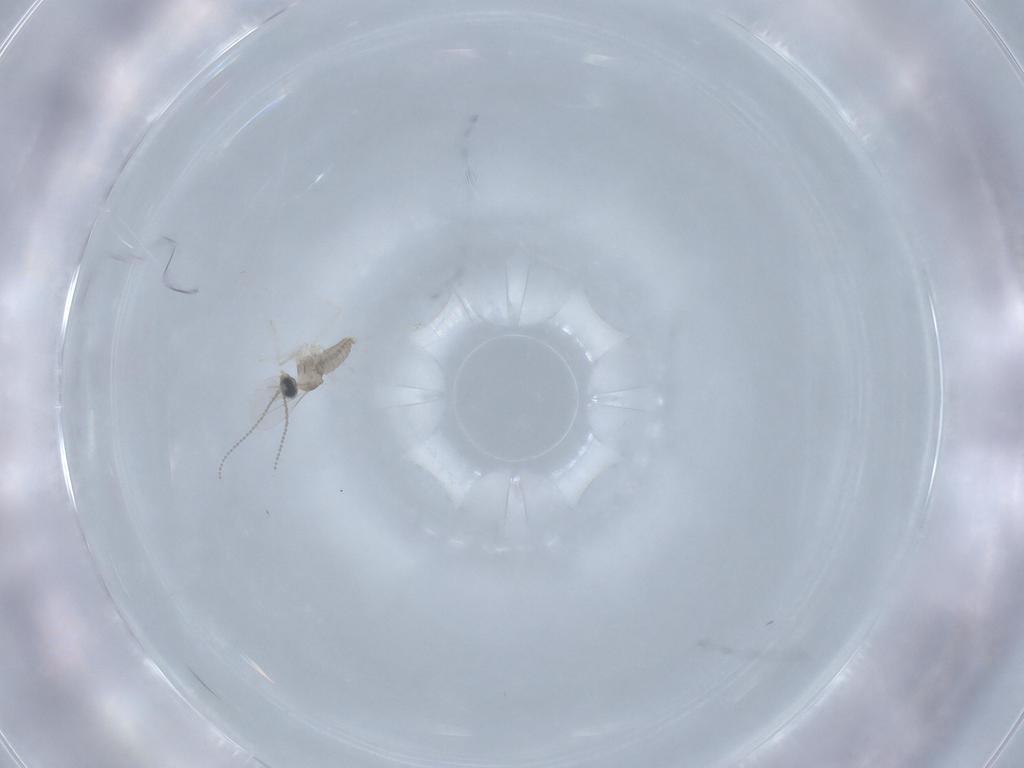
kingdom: Animalia
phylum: Arthropoda
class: Insecta
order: Diptera
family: Cecidomyiidae
